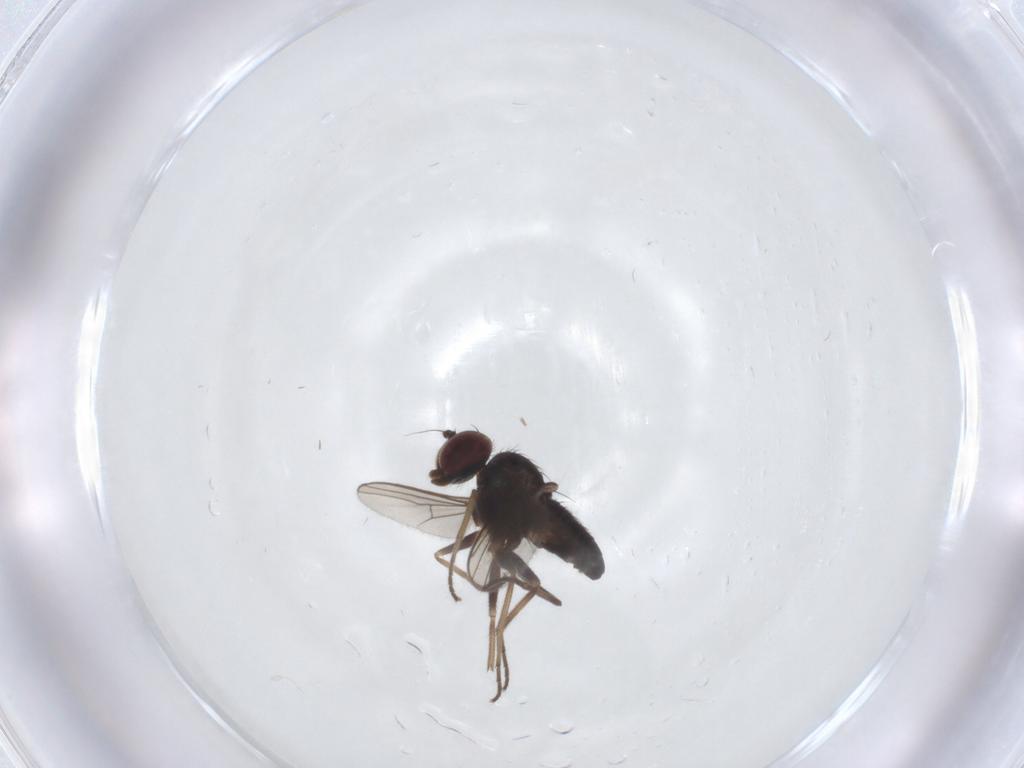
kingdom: Animalia
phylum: Arthropoda
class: Insecta
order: Diptera
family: Dolichopodidae
